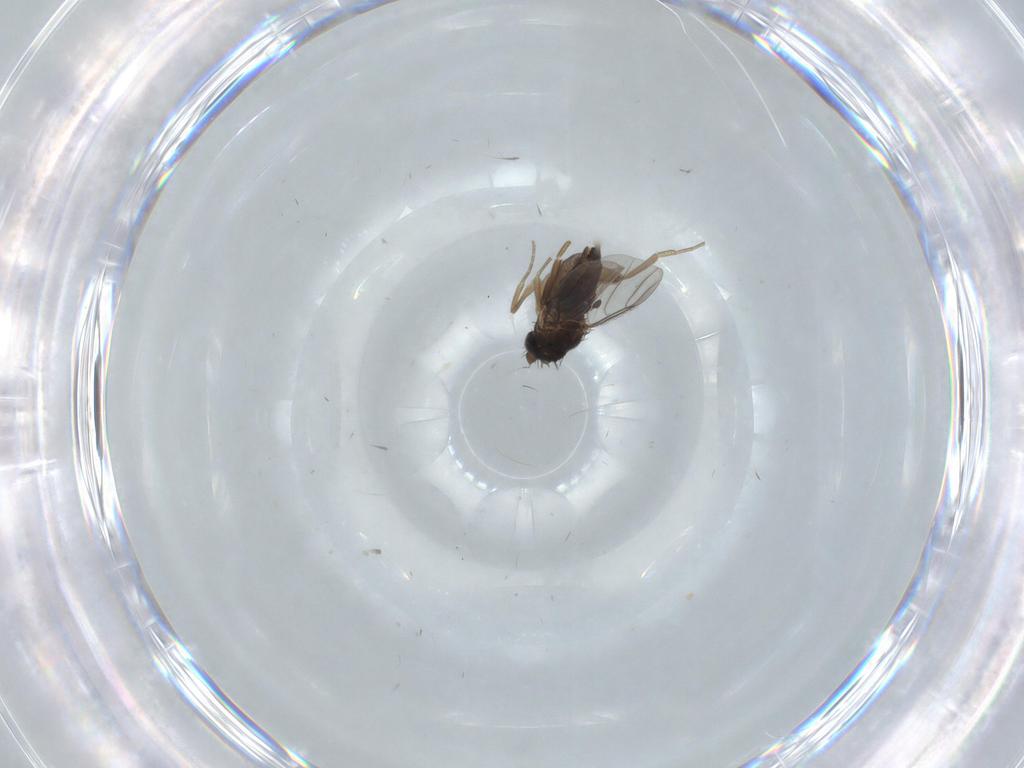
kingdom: Animalia
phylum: Arthropoda
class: Insecta
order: Diptera
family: Phoridae
